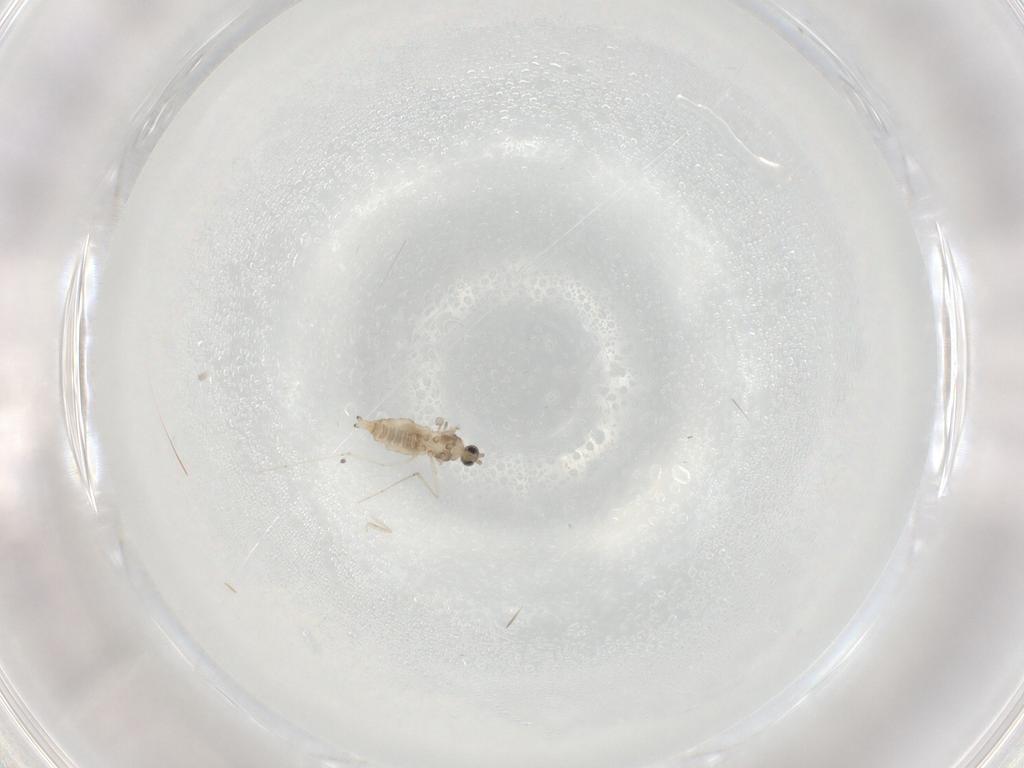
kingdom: Animalia
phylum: Arthropoda
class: Insecta
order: Diptera
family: Cecidomyiidae
